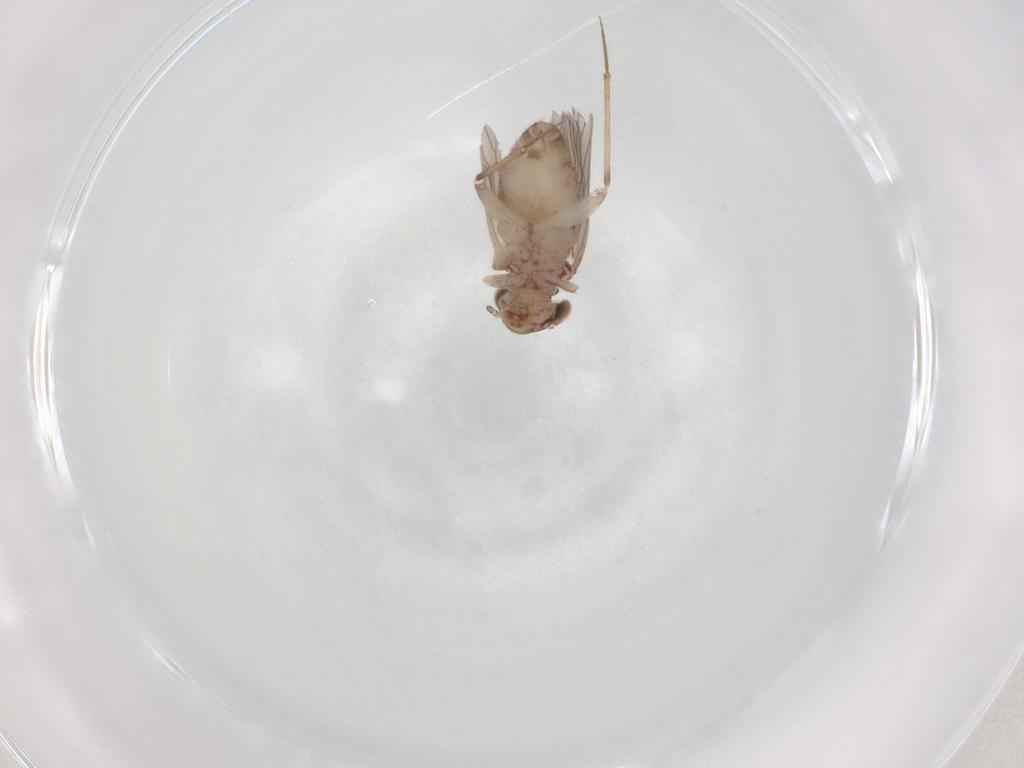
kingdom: Animalia
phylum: Arthropoda
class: Insecta
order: Psocodea
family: Lepidopsocidae
